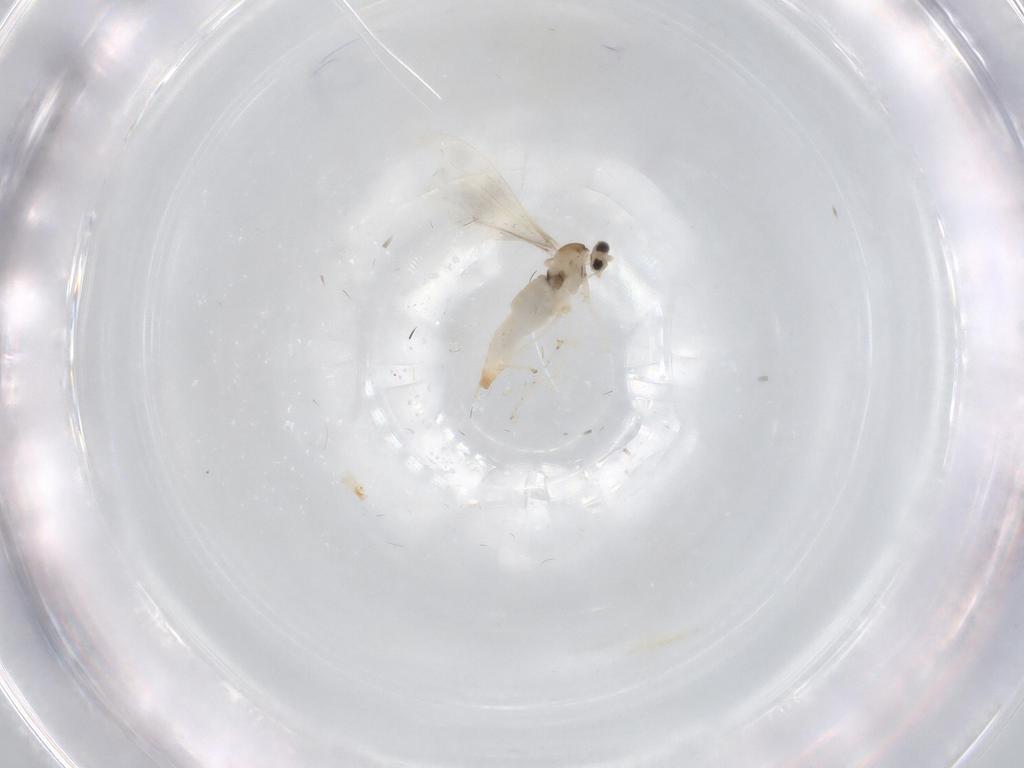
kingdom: Animalia
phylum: Arthropoda
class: Insecta
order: Diptera
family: Cecidomyiidae
